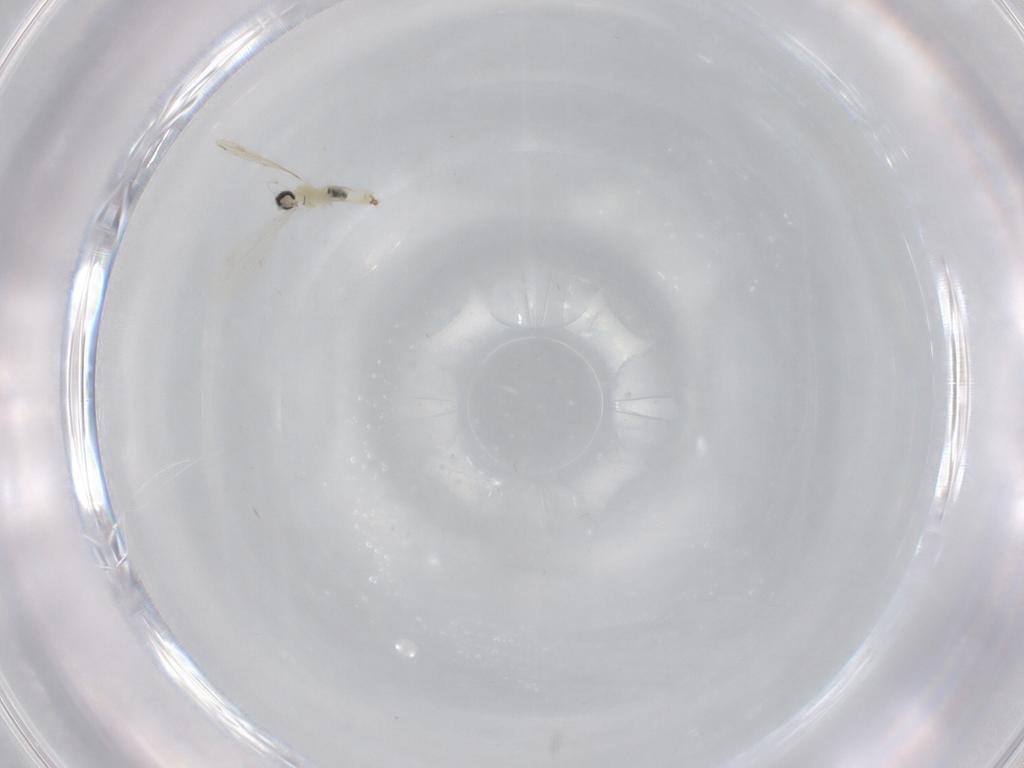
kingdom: Animalia
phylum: Arthropoda
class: Insecta
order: Diptera
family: Cecidomyiidae
